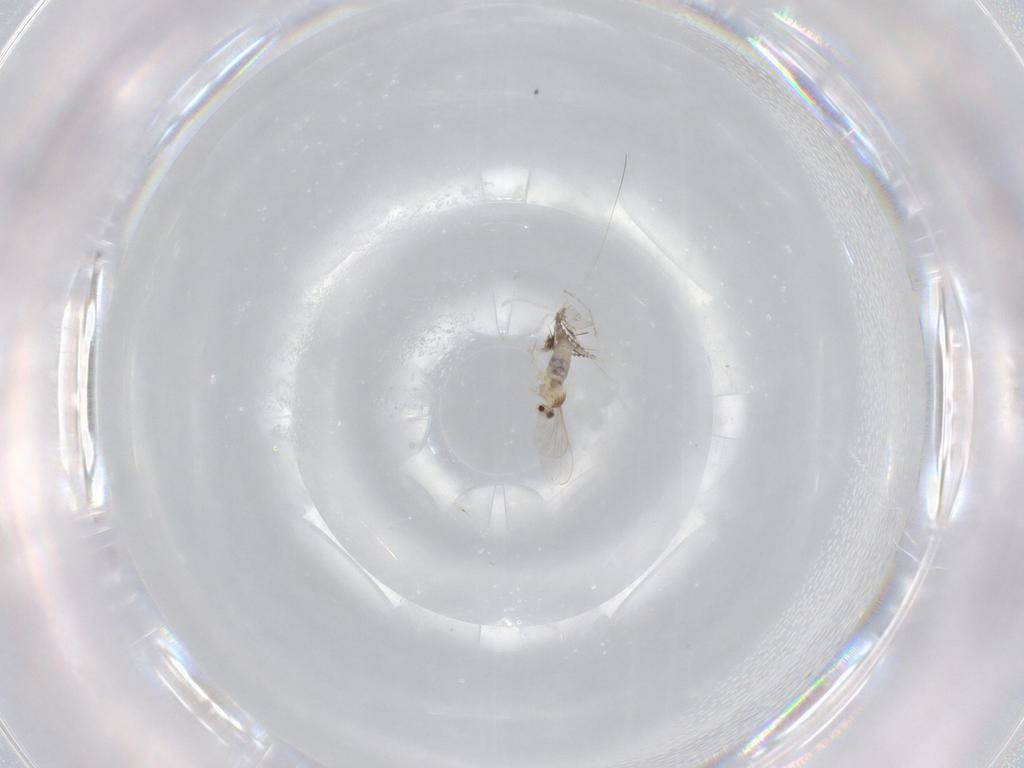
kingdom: Animalia
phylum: Arthropoda
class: Insecta
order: Diptera
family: Cecidomyiidae
